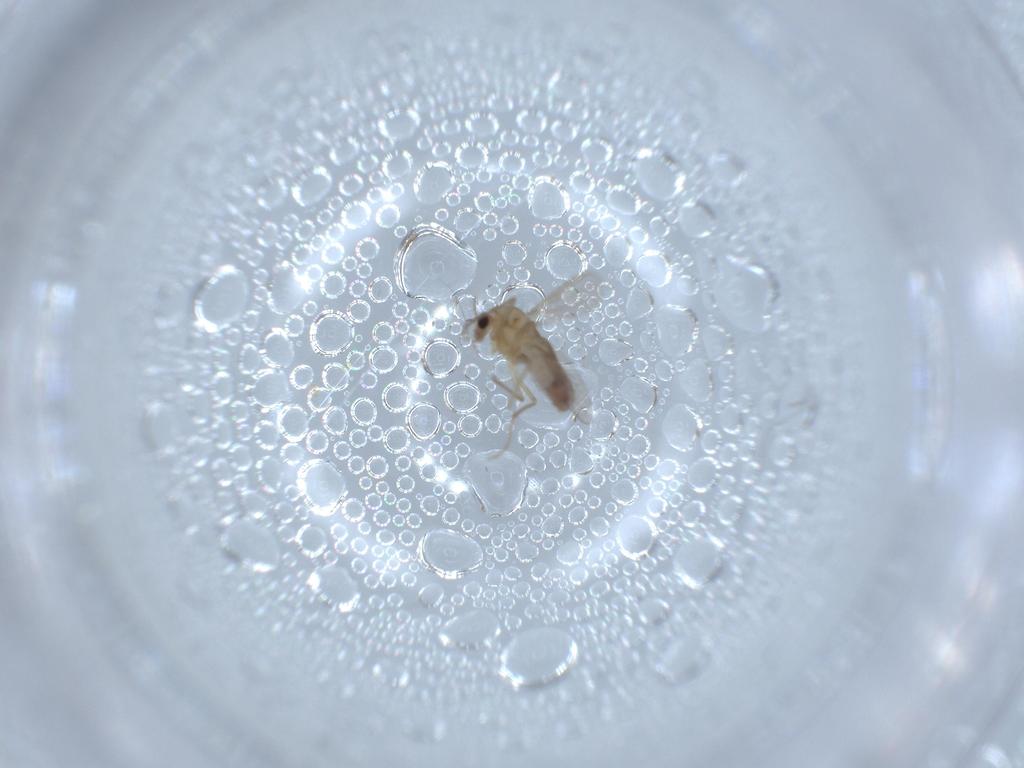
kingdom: Animalia
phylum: Arthropoda
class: Insecta
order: Diptera
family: Chironomidae
